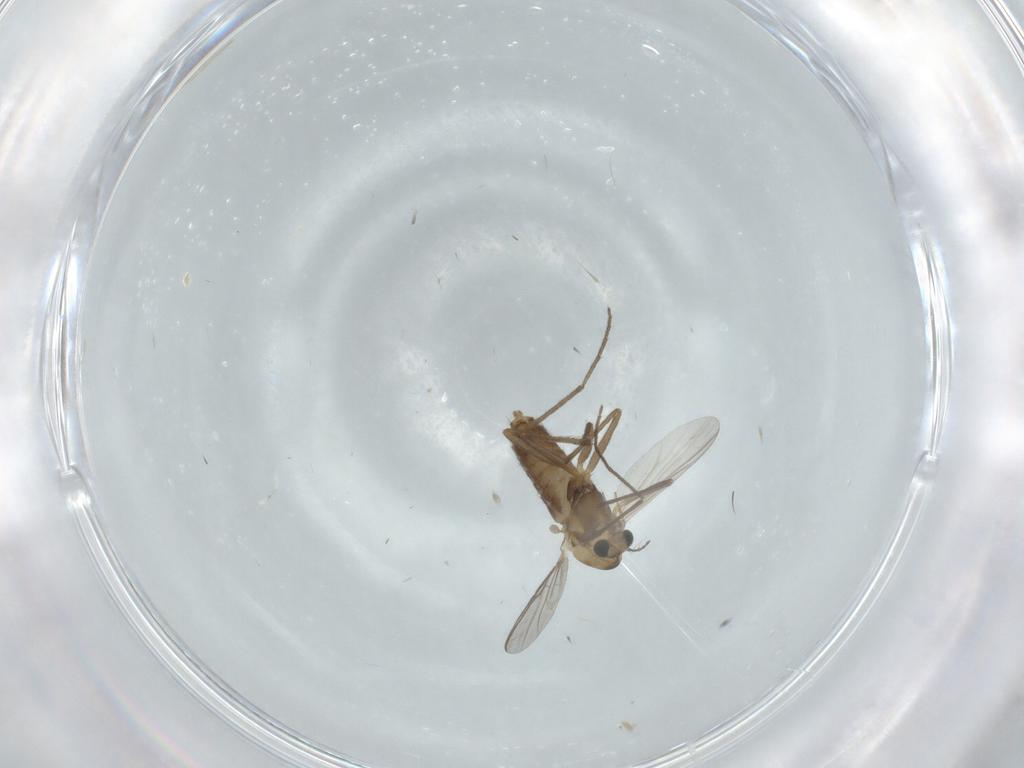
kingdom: Animalia
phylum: Arthropoda
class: Insecta
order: Diptera
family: Chironomidae
